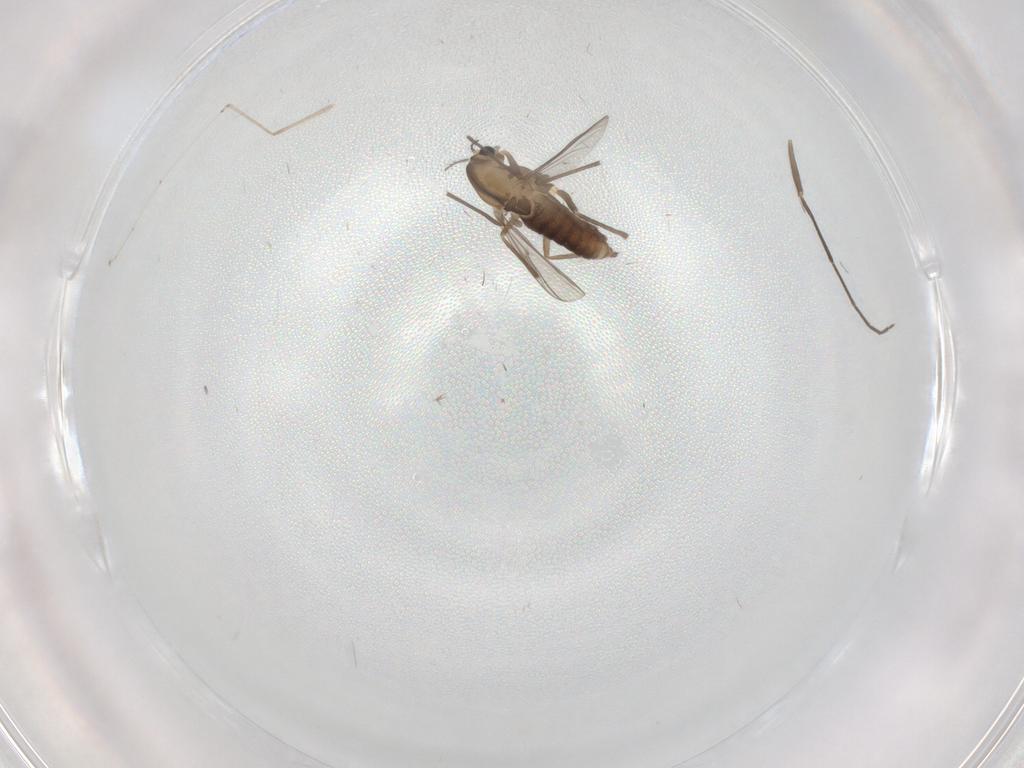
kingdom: Animalia
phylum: Arthropoda
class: Insecta
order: Diptera
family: Chironomidae
